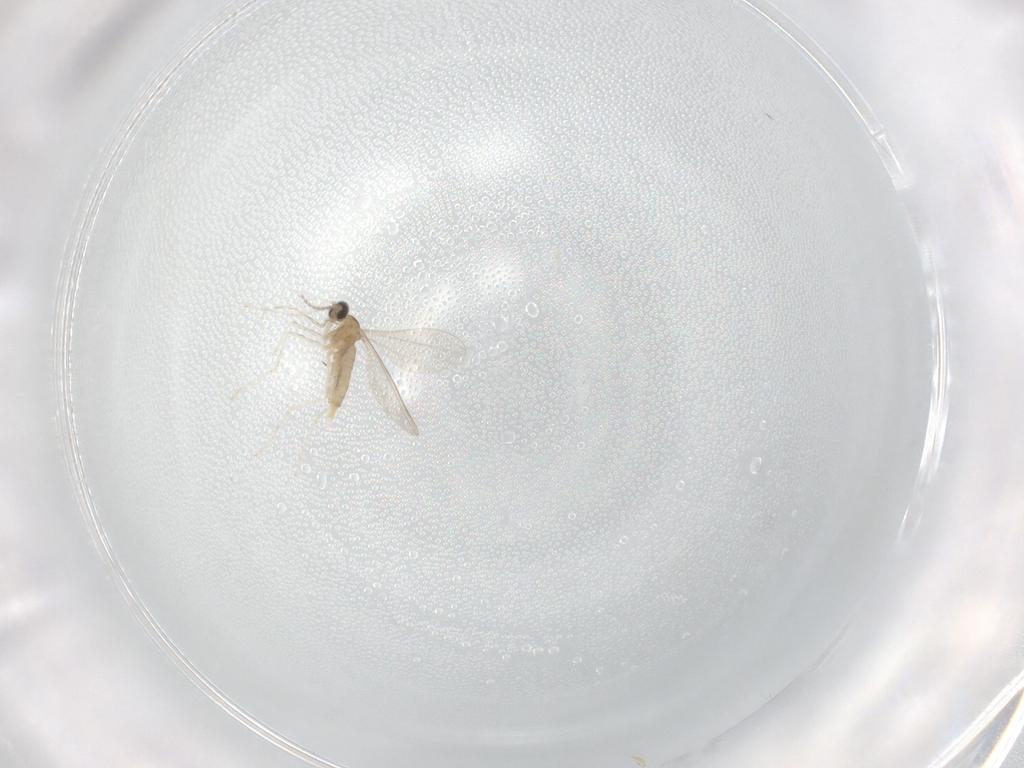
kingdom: Animalia
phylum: Arthropoda
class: Insecta
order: Diptera
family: Cecidomyiidae
